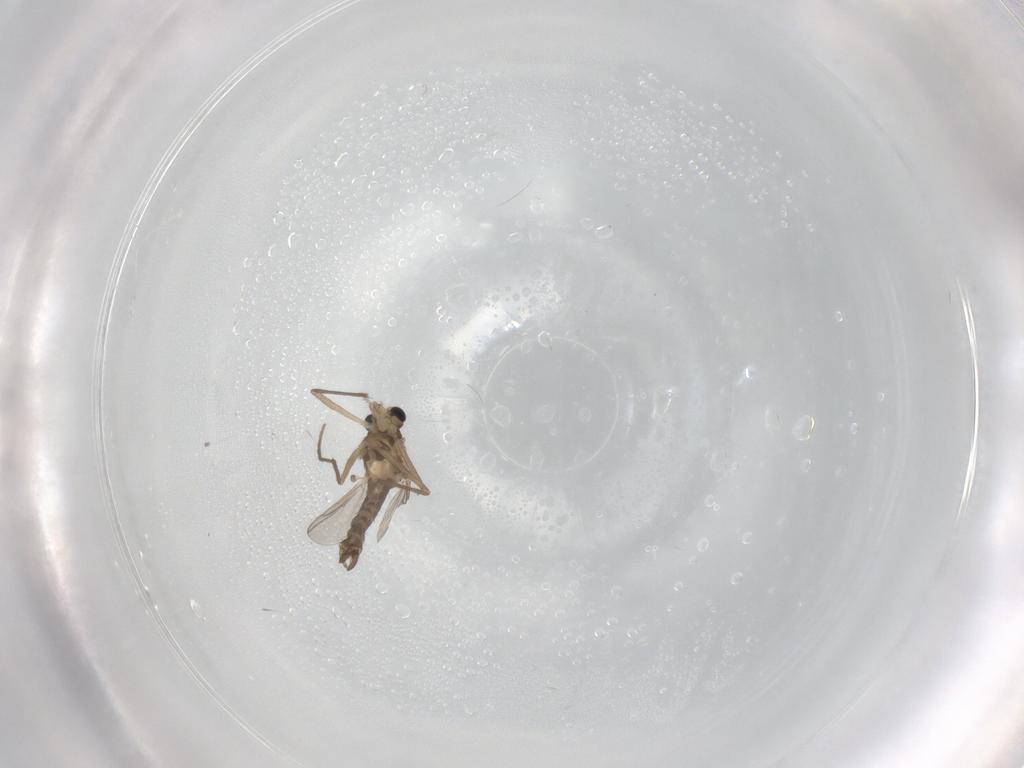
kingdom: Animalia
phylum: Arthropoda
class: Insecta
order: Diptera
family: Chironomidae
